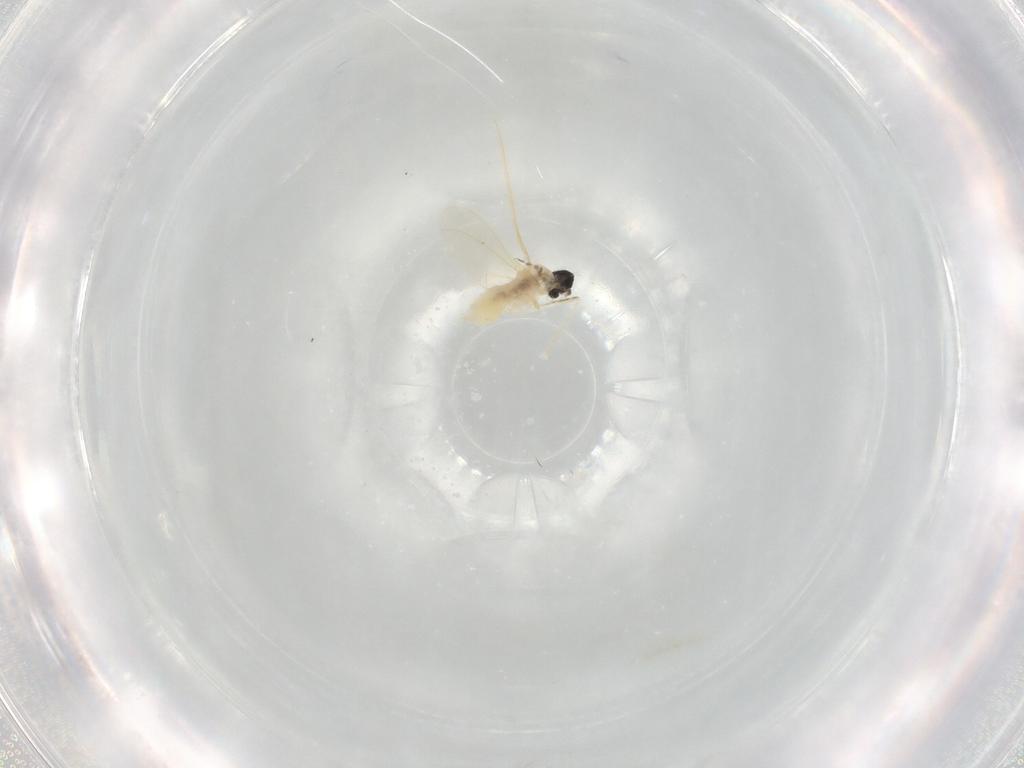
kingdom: Animalia
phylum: Arthropoda
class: Insecta
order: Diptera
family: Cecidomyiidae
